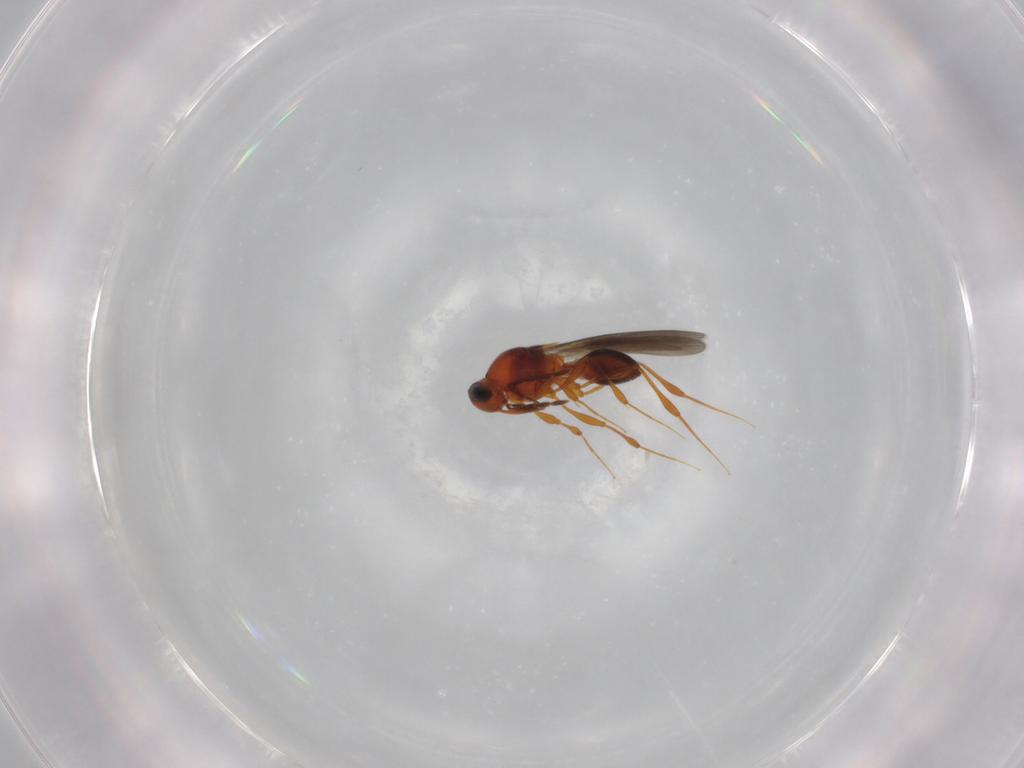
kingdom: Animalia
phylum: Arthropoda
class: Insecta
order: Hymenoptera
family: Platygastridae
